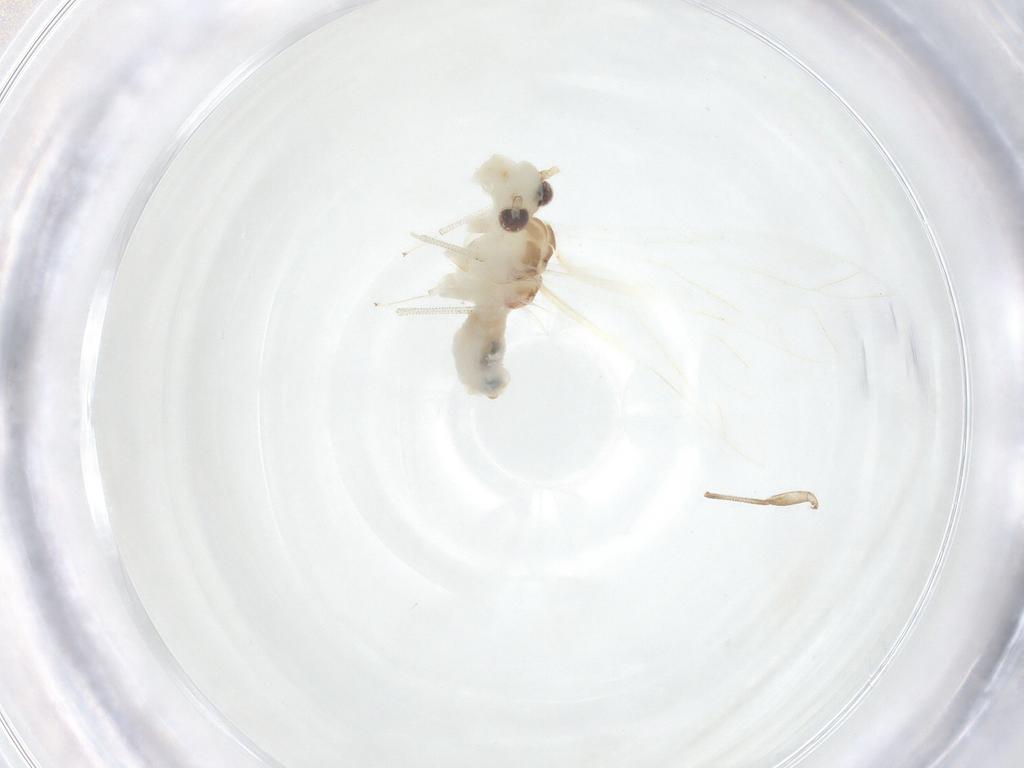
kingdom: Animalia
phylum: Arthropoda
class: Insecta
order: Psocodea
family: Caeciliusidae
